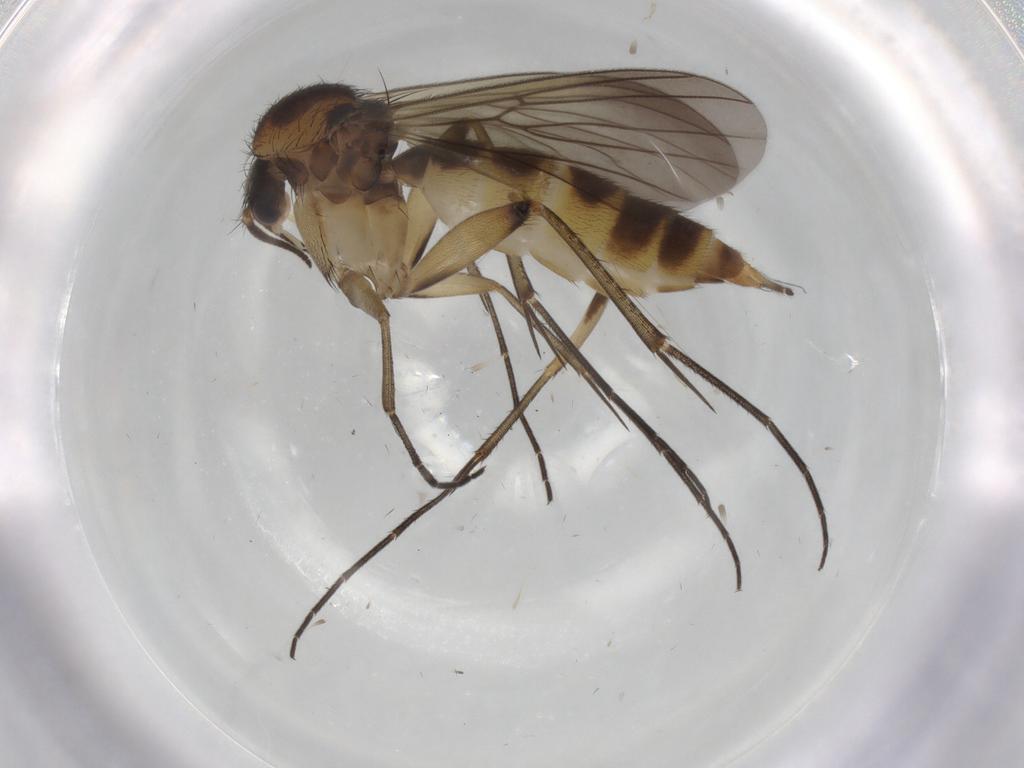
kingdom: Animalia
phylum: Arthropoda
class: Insecta
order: Diptera
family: Mycetophilidae
